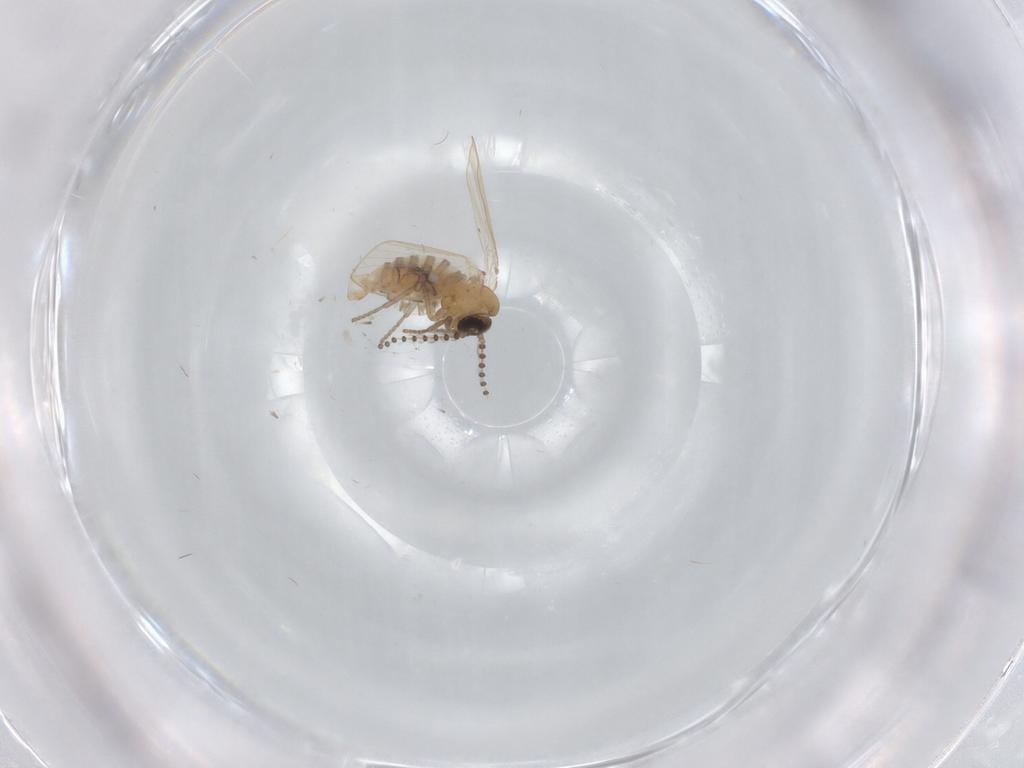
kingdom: Animalia
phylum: Arthropoda
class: Insecta
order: Diptera
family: Psychodidae
